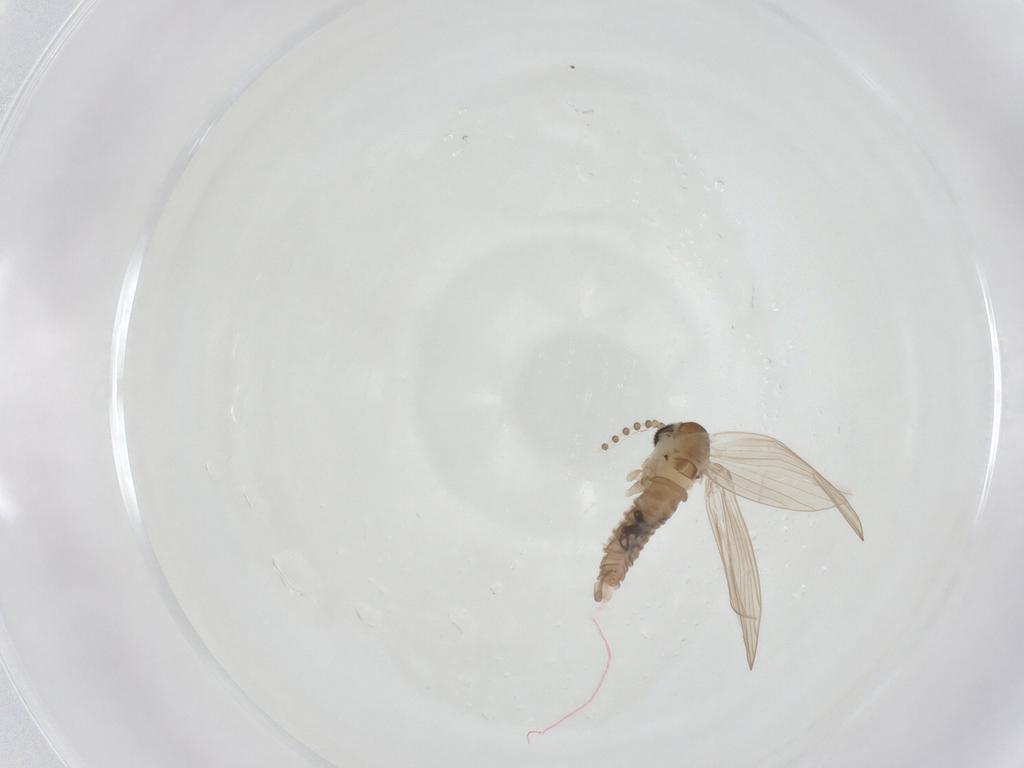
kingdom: Animalia
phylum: Arthropoda
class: Insecta
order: Diptera
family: Psychodidae
